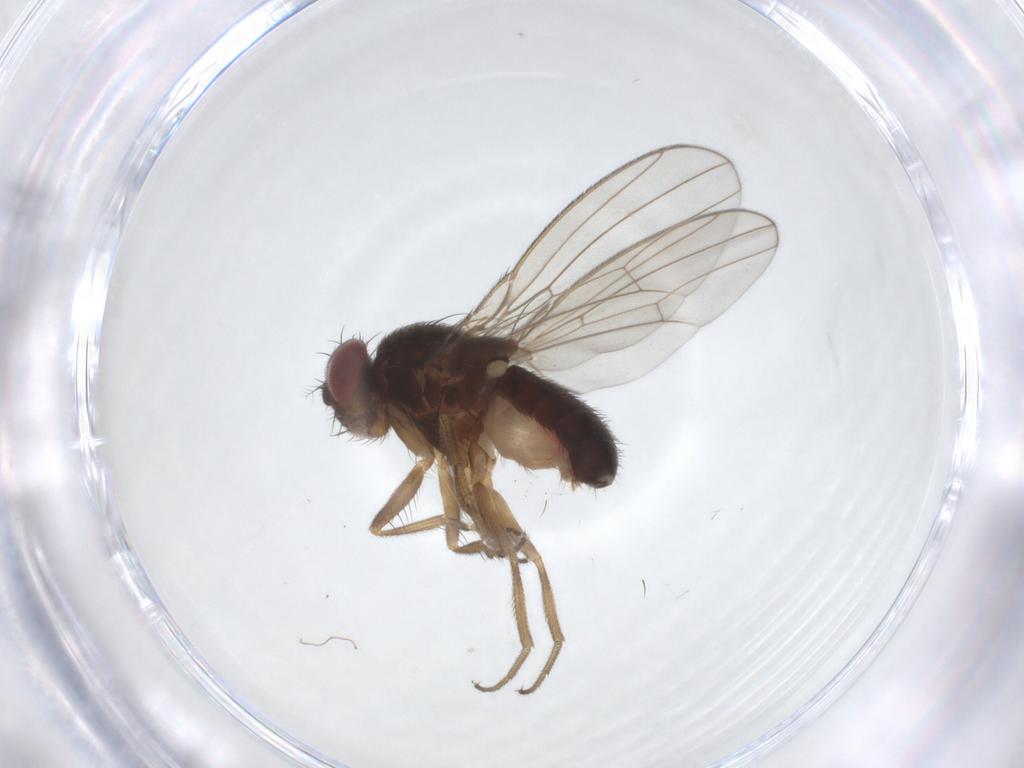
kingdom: Animalia
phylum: Arthropoda
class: Insecta
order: Diptera
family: Drosophilidae
